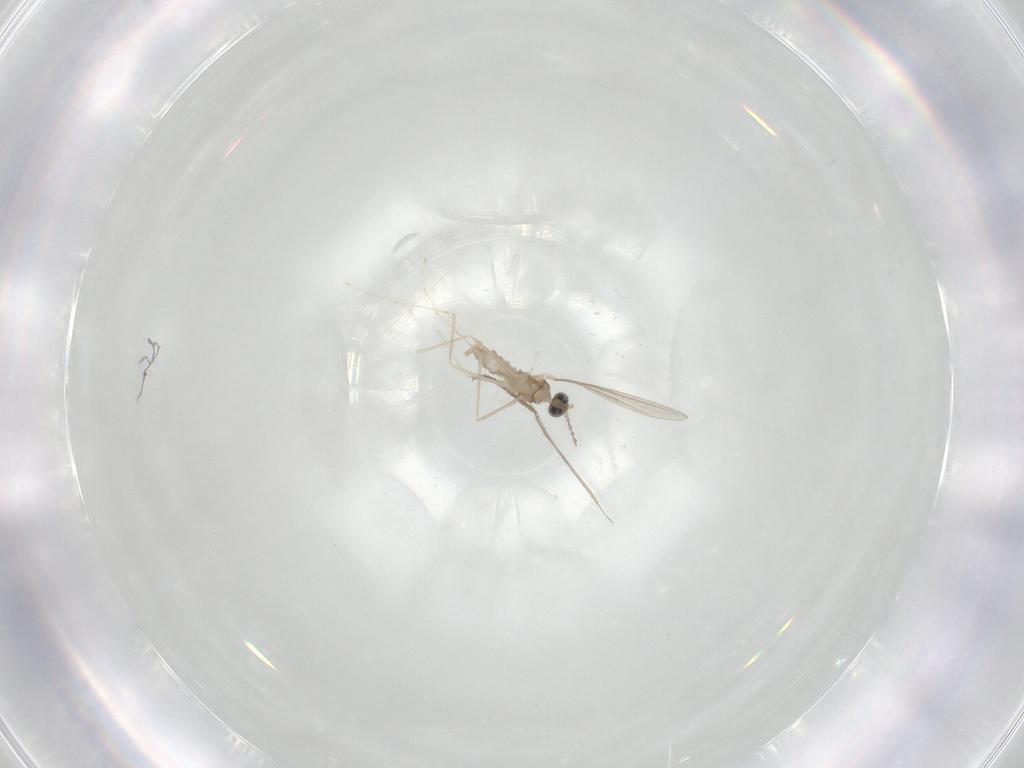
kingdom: Animalia
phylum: Arthropoda
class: Insecta
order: Diptera
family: Cecidomyiidae
